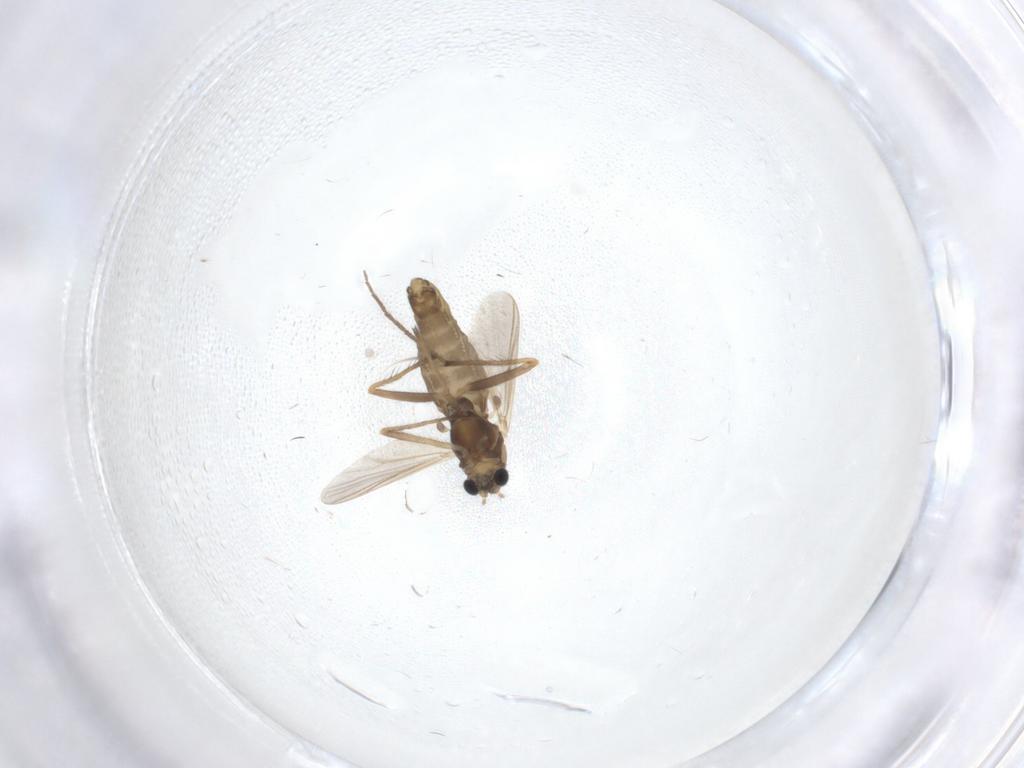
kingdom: Animalia
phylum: Arthropoda
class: Insecta
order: Diptera
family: Chironomidae
